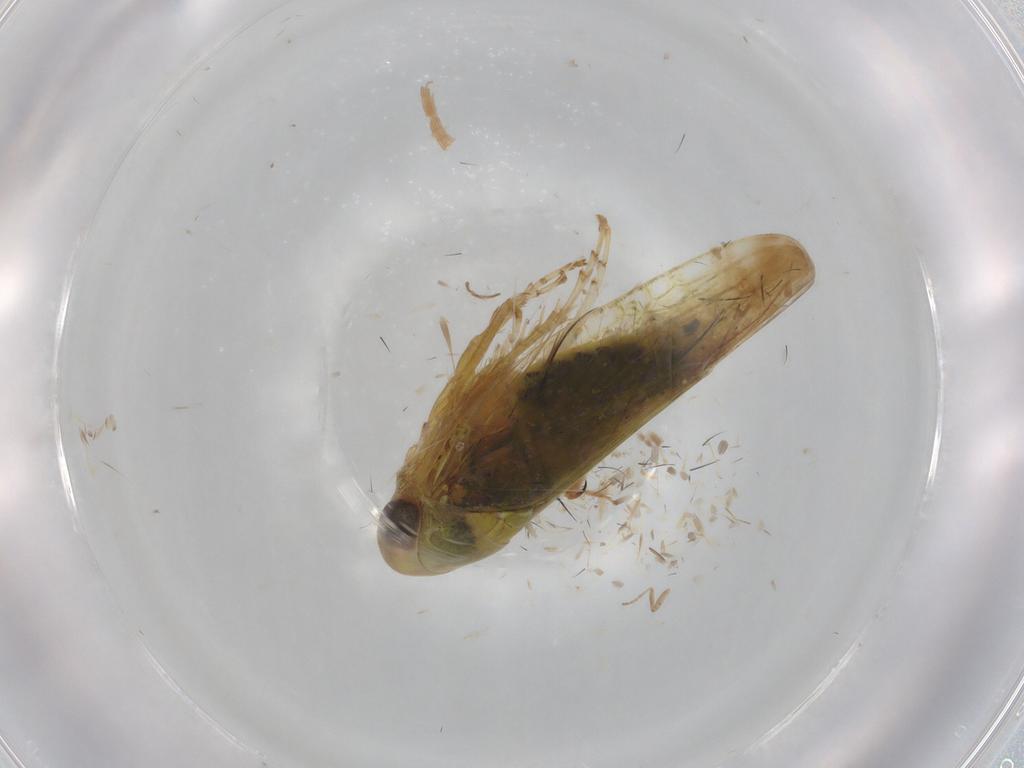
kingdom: Animalia
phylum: Arthropoda
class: Insecta
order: Hemiptera
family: Cicadellidae
